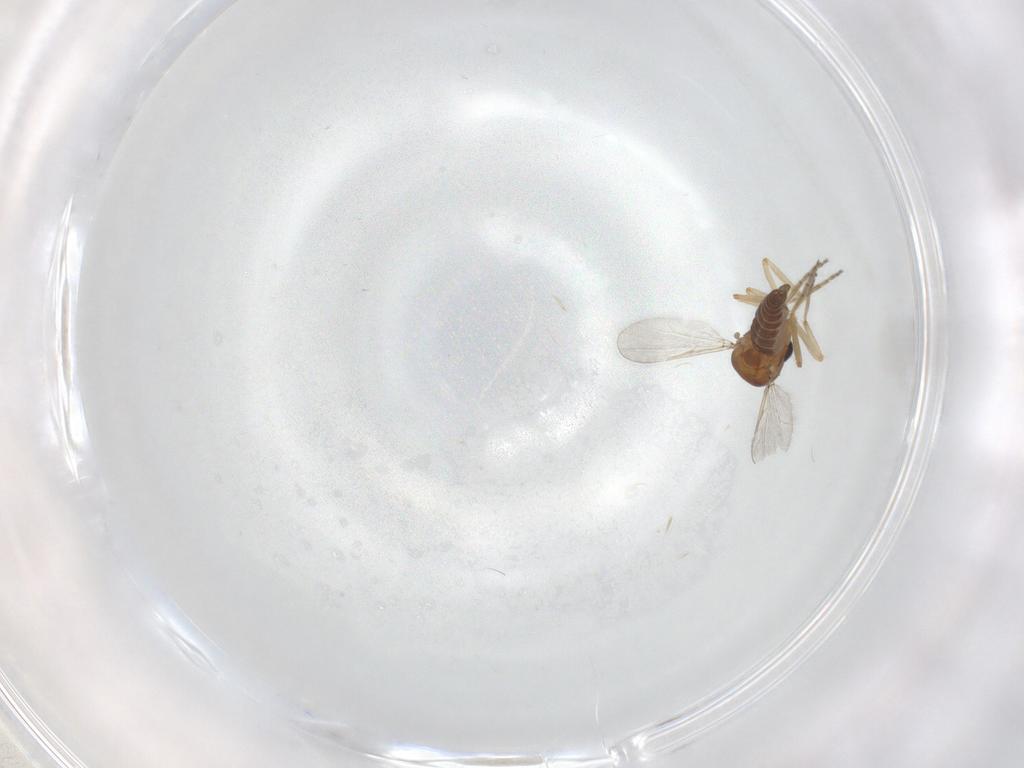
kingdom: Animalia
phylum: Arthropoda
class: Insecta
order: Diptera
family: Ceratopogonidae
